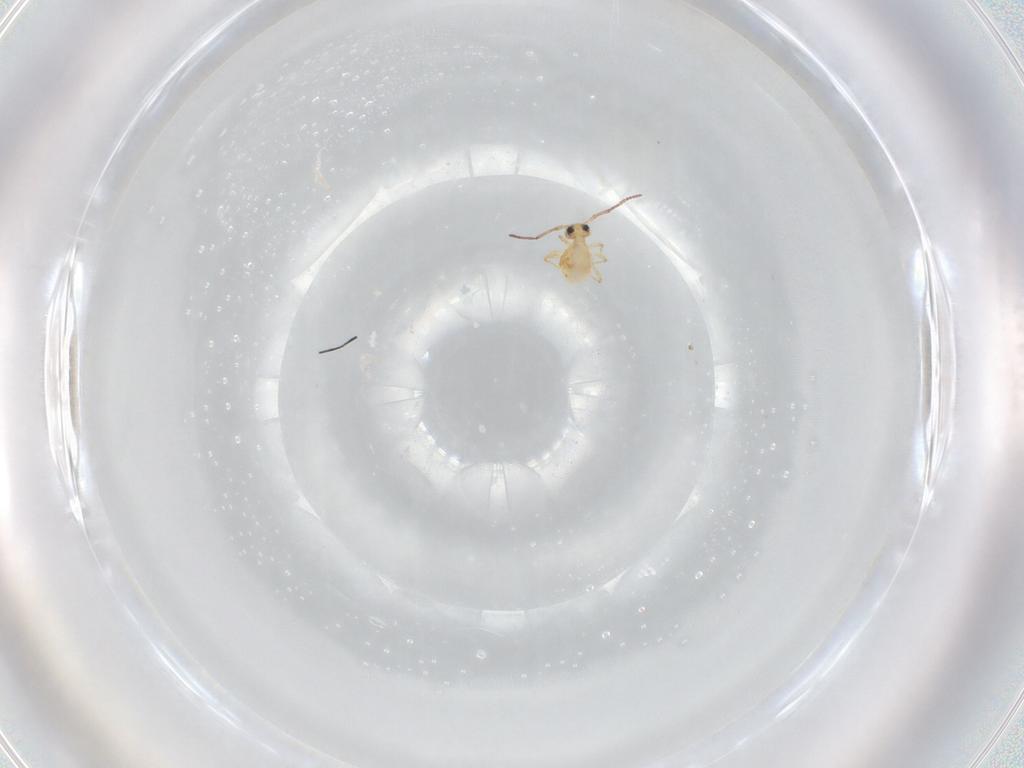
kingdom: Animalia
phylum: Arthropoda
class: Collembola
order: Symphypleona
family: Bourletiellidae
